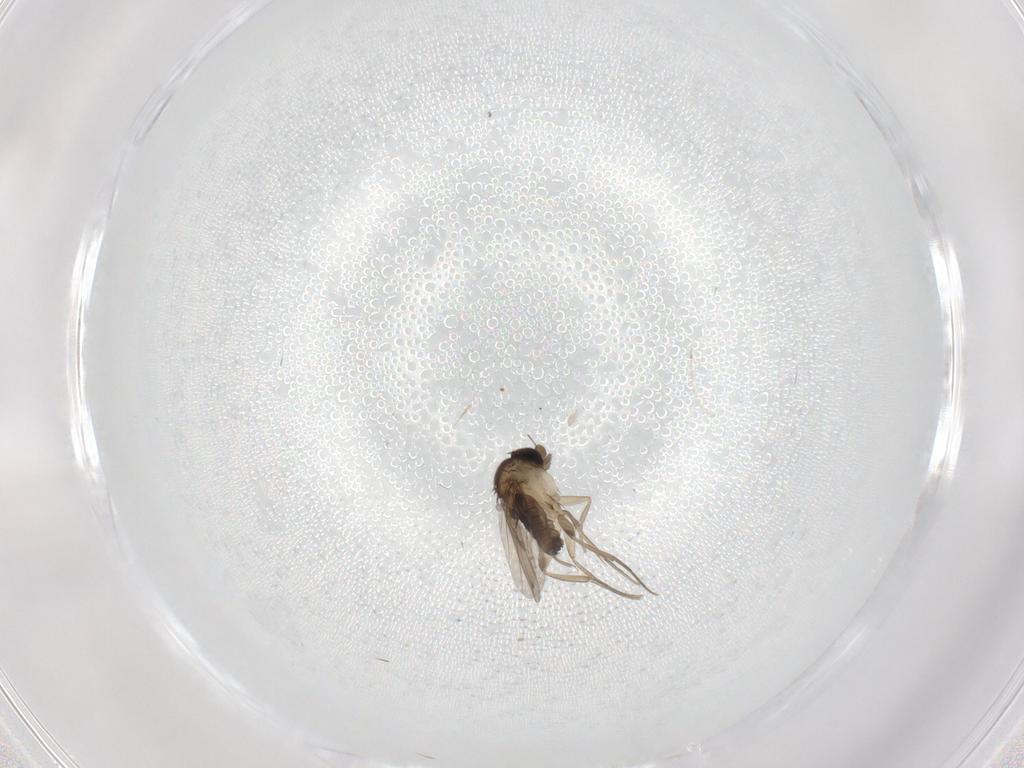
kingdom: Animalia
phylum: Arthropoda
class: Insecta
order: Diptera
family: Phoridae
